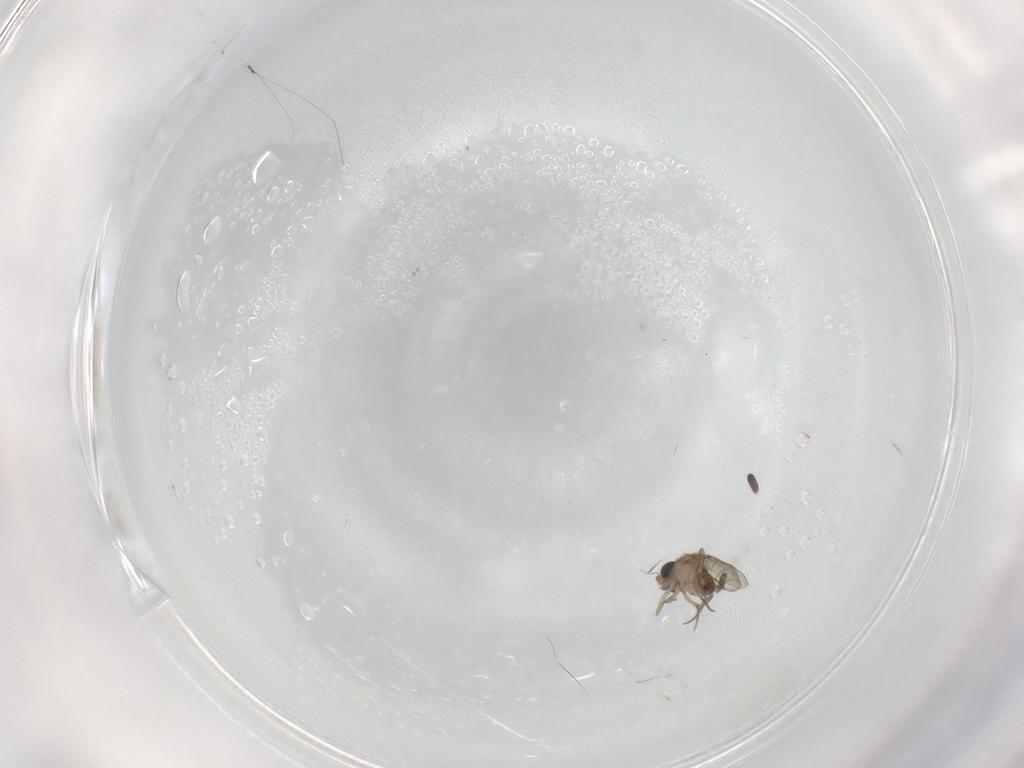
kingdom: Animalia
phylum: Arthropoda
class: Insecta
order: Diptera
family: Phoridae
